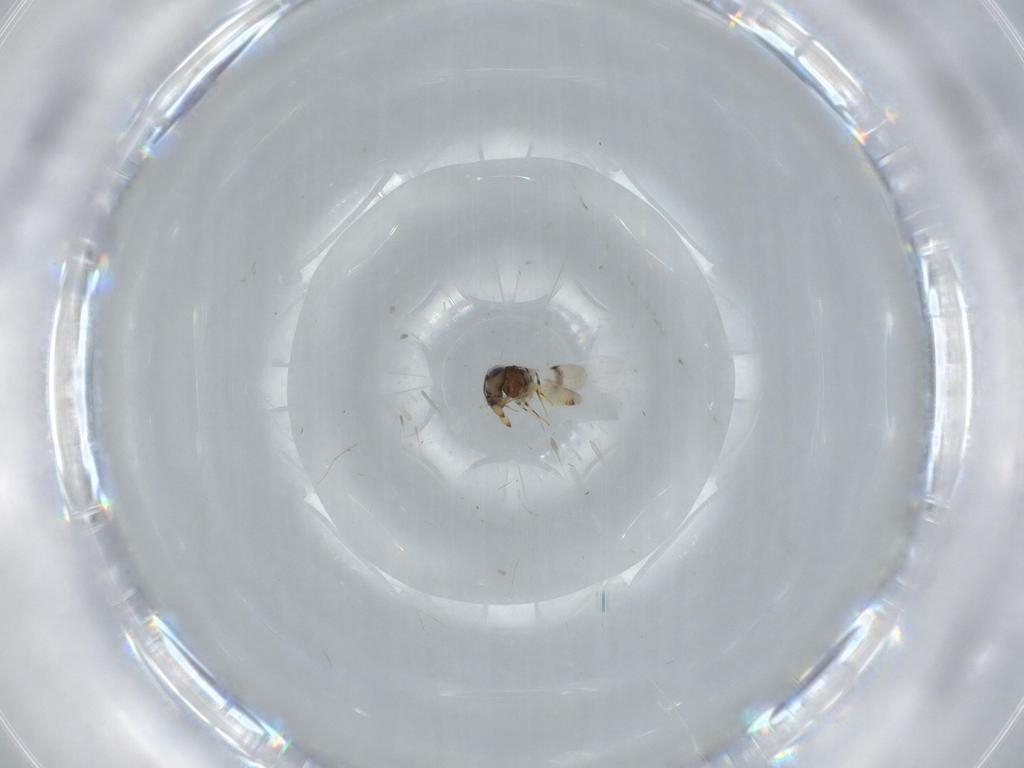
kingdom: Animalia
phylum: Arthropoda
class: Insecta
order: Hymenoptera
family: Scelionidae
